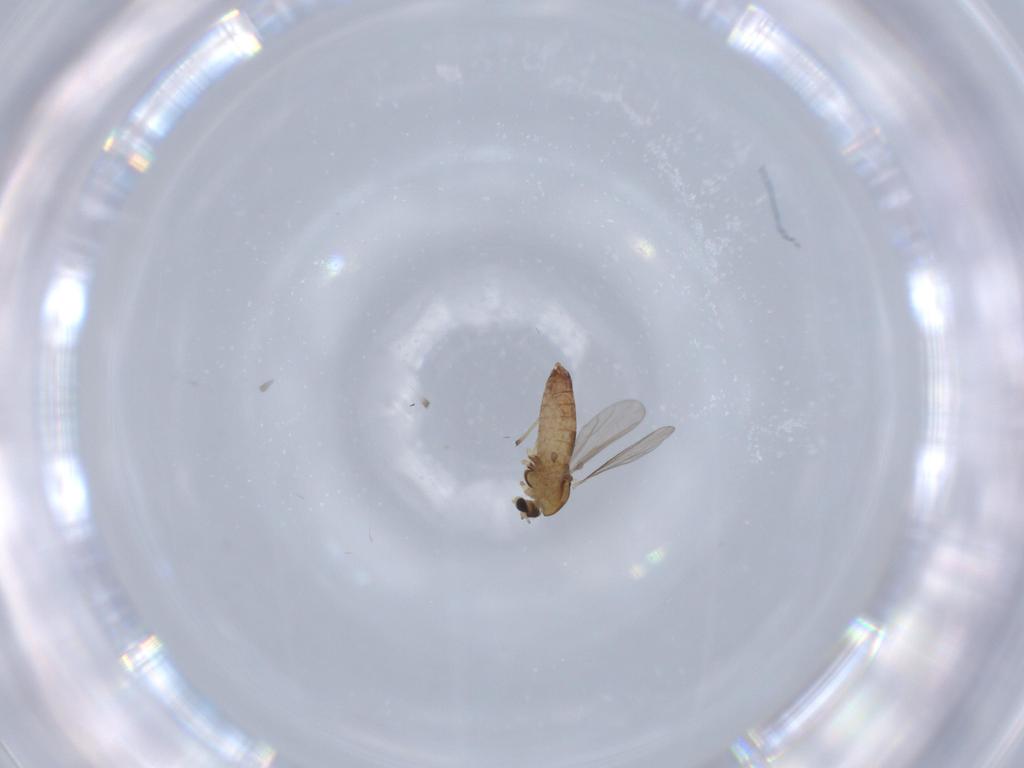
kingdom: Animalia
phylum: Arthropoda
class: Insecta
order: Diptera
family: Chironomidae
